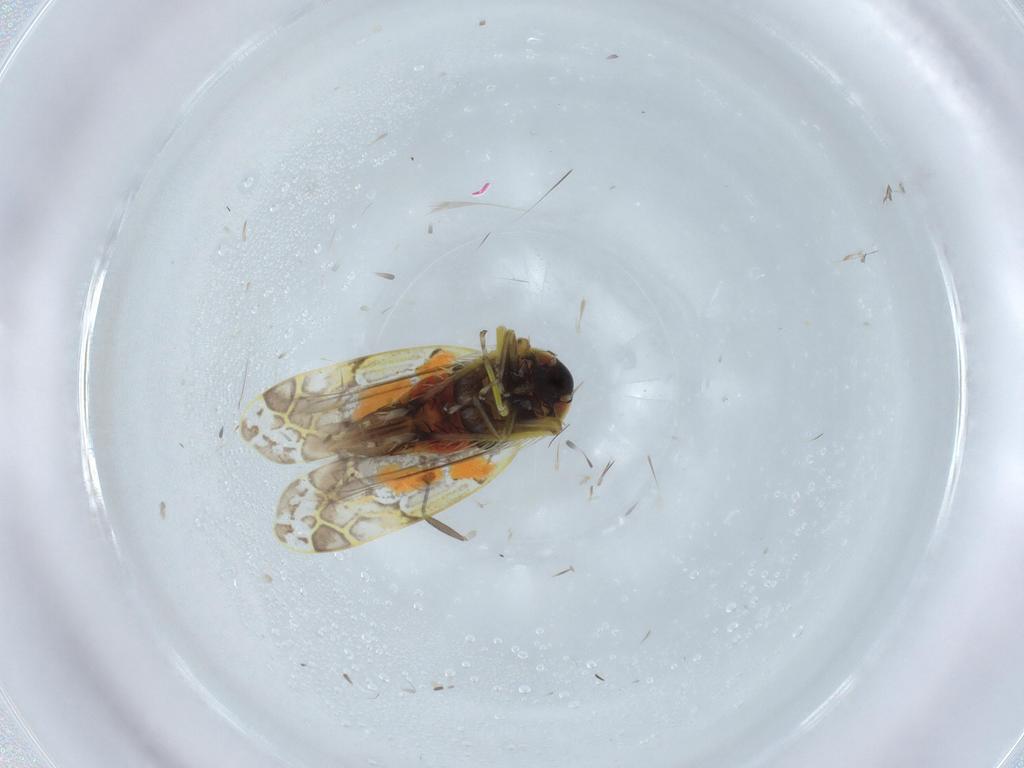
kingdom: Animalia
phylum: Arthropoda
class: Insecta
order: Hemiptera
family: Cicadellidae
